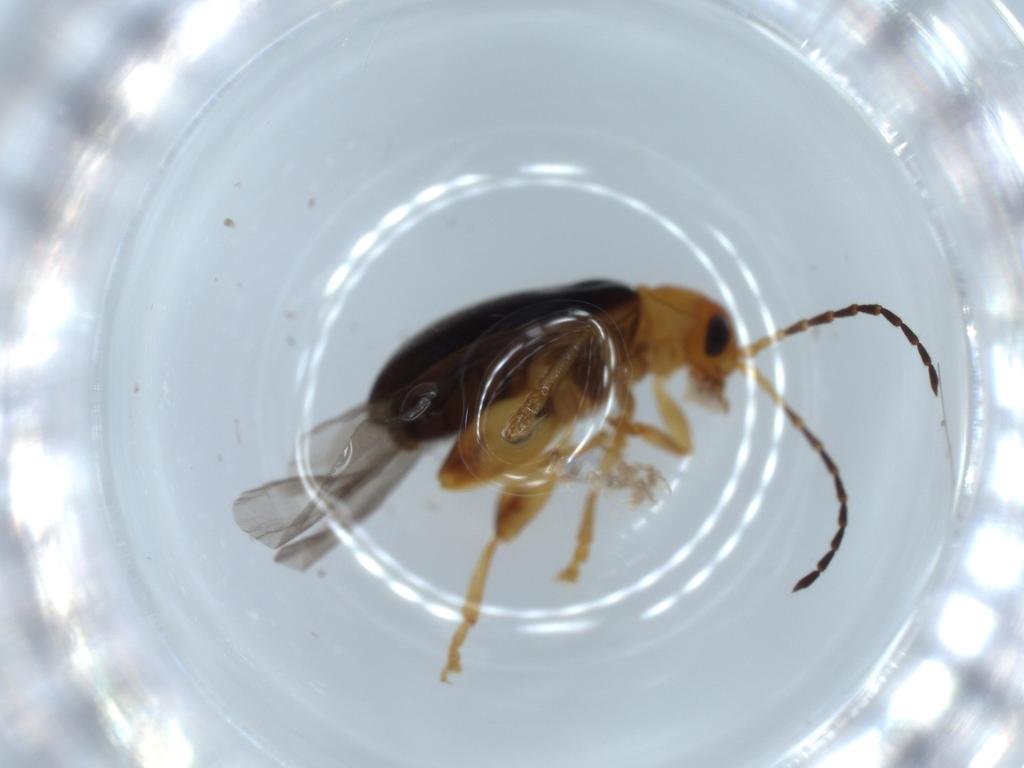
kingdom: Animalia
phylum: Arthropoda
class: Insecta
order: Coleoptera
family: Chrysomelidae
